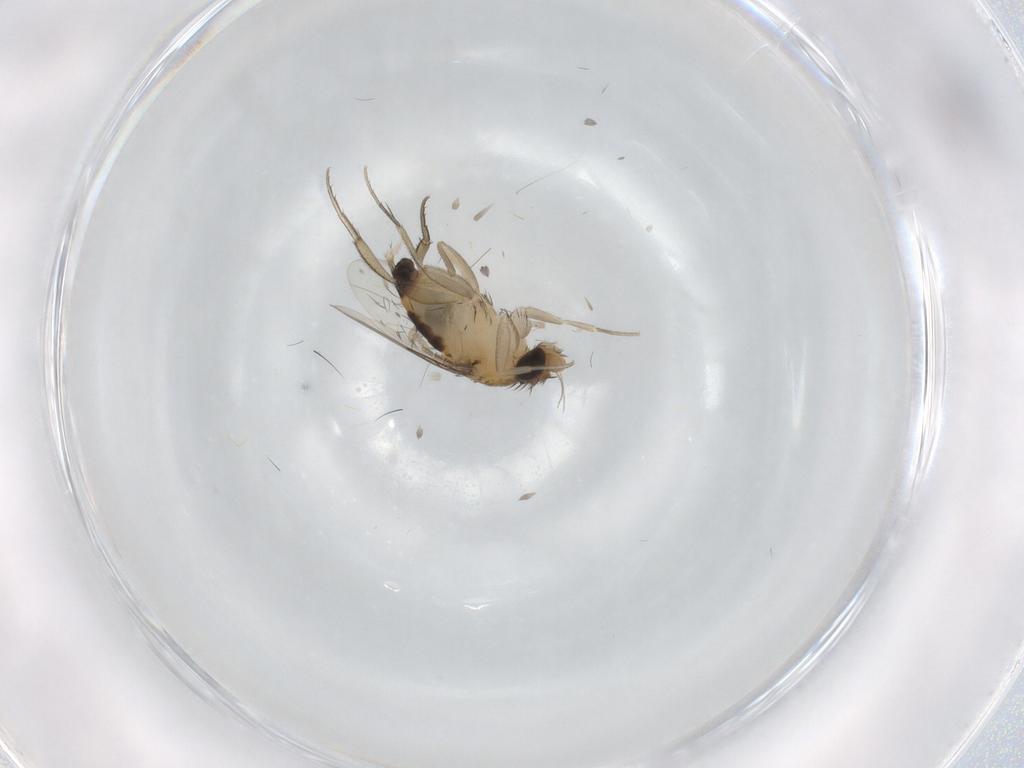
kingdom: Animalia
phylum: Arthropoda
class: Insecta
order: Diptera
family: Phoridae
